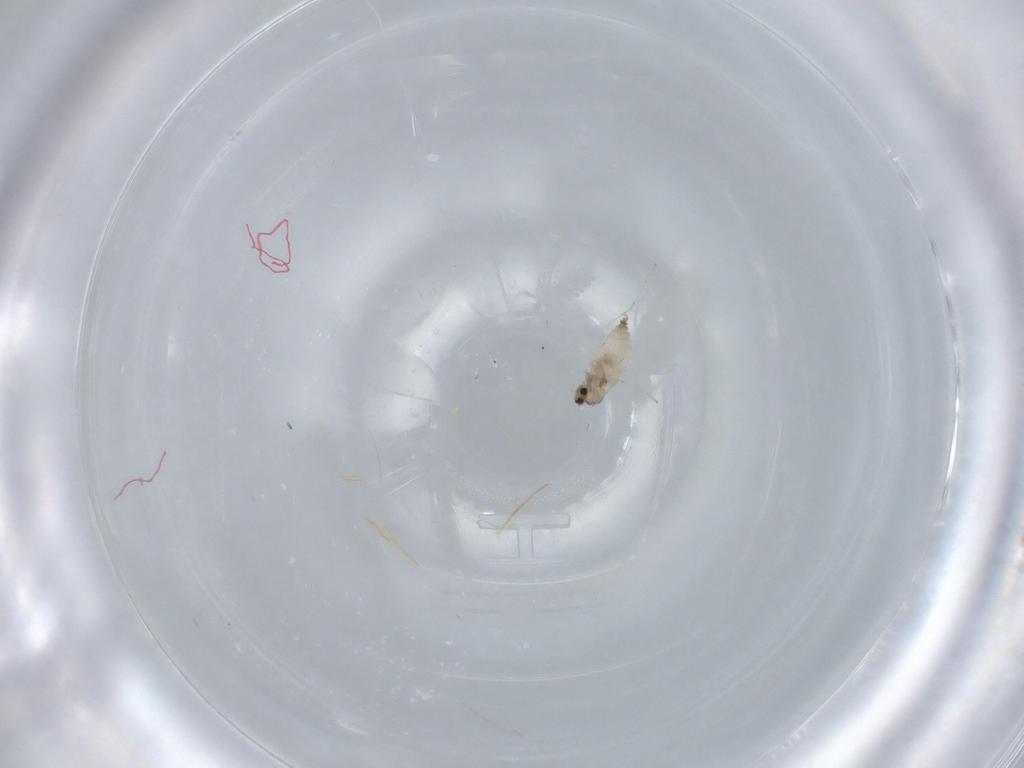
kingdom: Animalia
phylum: Arthropoda
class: Insecta
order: Diptera
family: Cecidomyiidae
